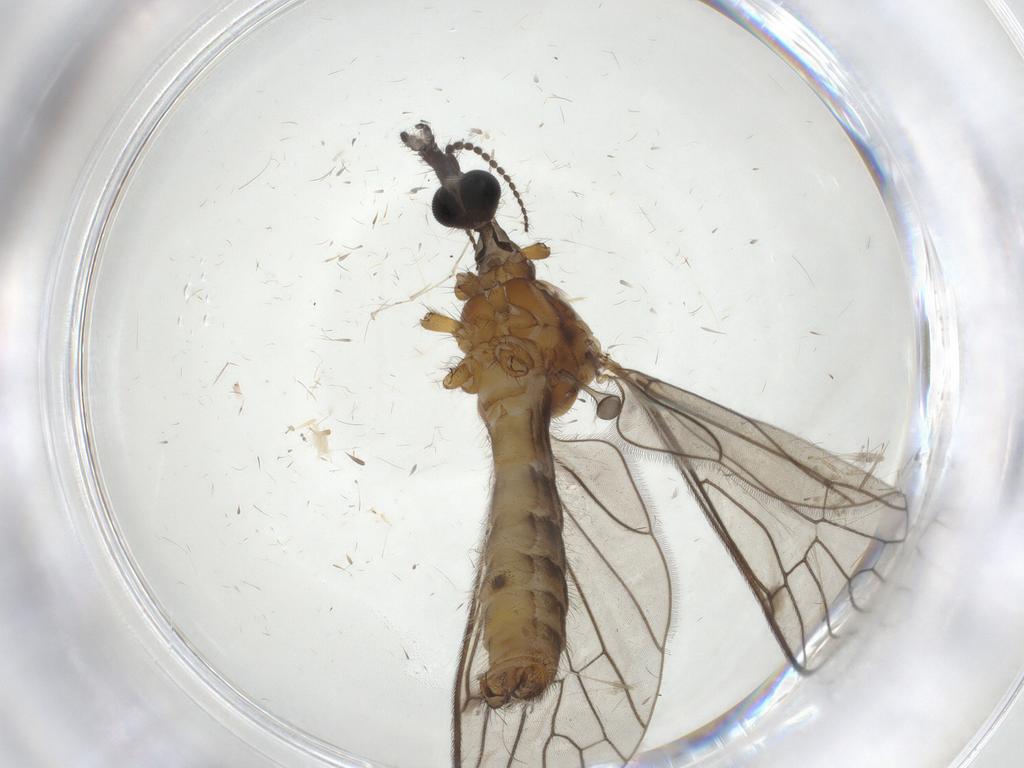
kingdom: Animalia
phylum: Arthropoda
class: Insecta
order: Diptera
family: Limoniidae
